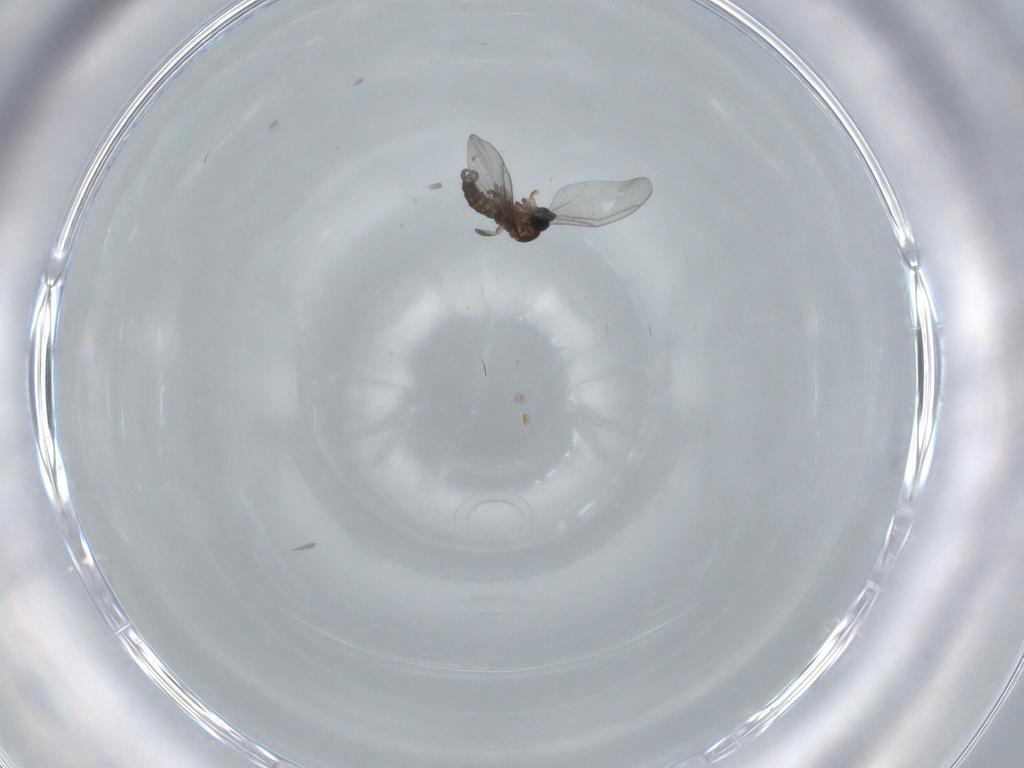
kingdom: Animalia
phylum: Arthropoda
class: Insecta
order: Diptera
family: Sciaridae
